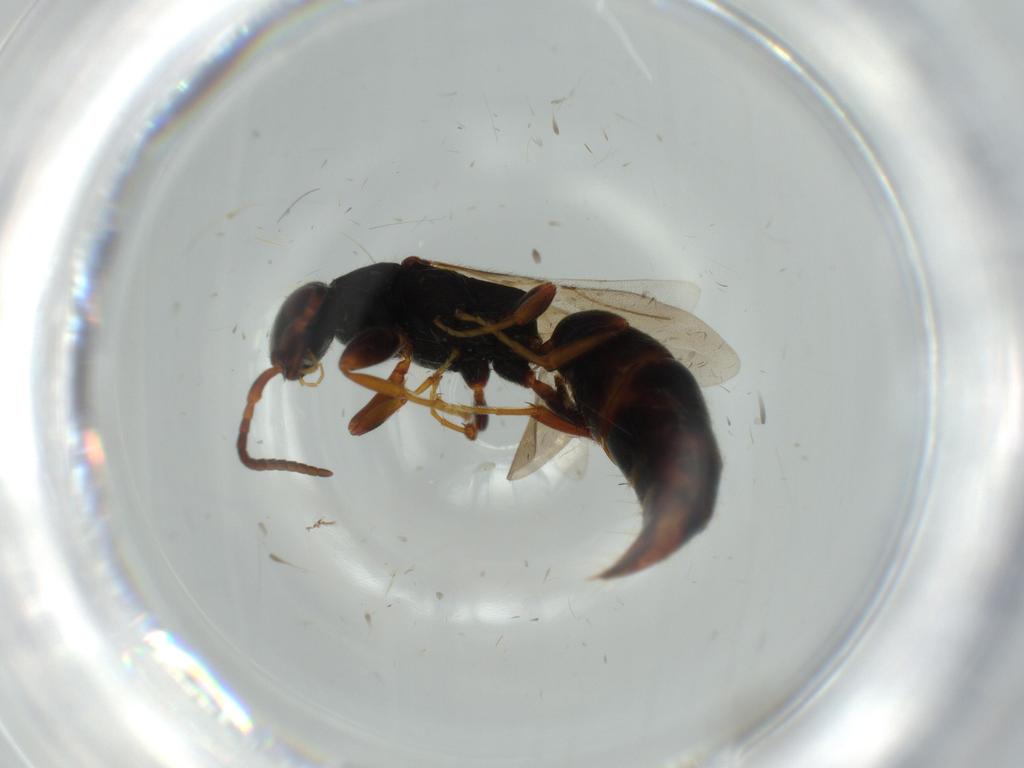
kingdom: Animalia
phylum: Arthropoda
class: Insecta
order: Hymenoptera
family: Bethylidae
